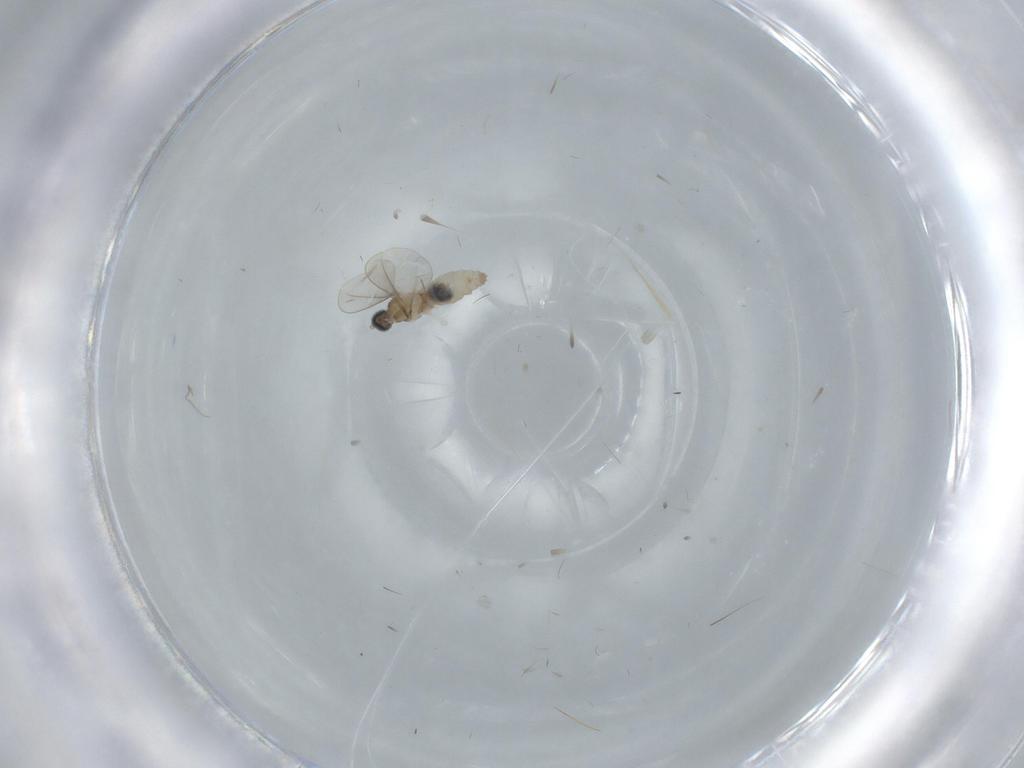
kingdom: Animalia
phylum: Arthropoda
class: Insecta
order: Diptera
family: Cecidomyiidae
